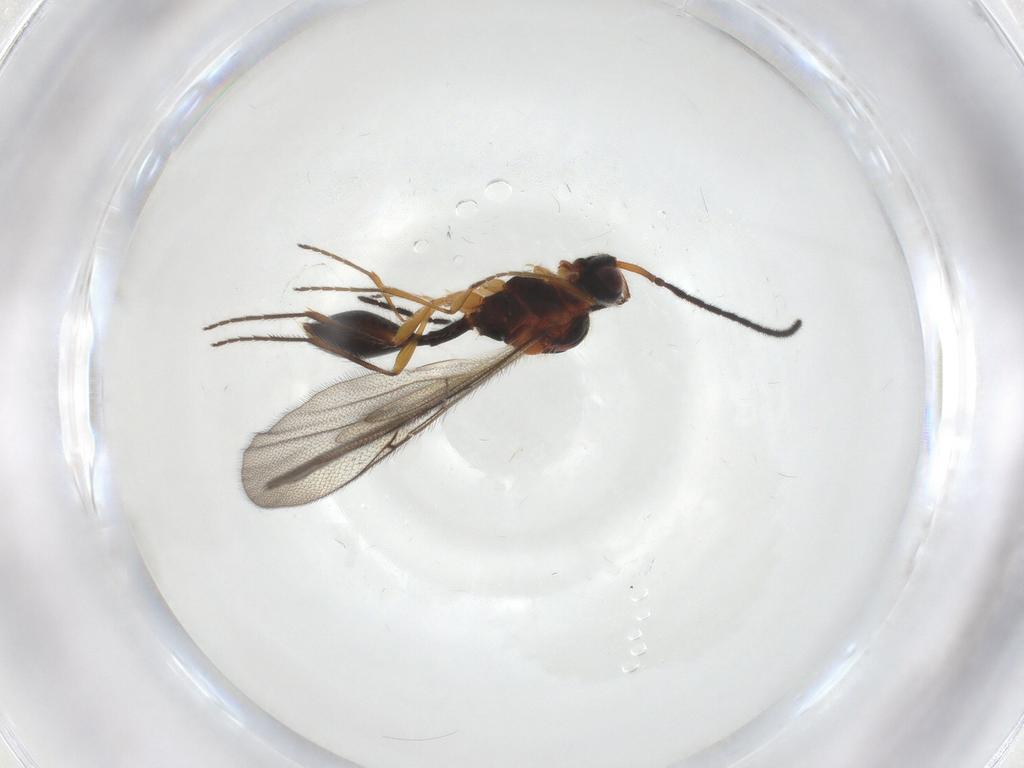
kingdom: Animalia
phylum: Arthropoda
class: Insecta
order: Hymenoptera
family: Diapriidae
